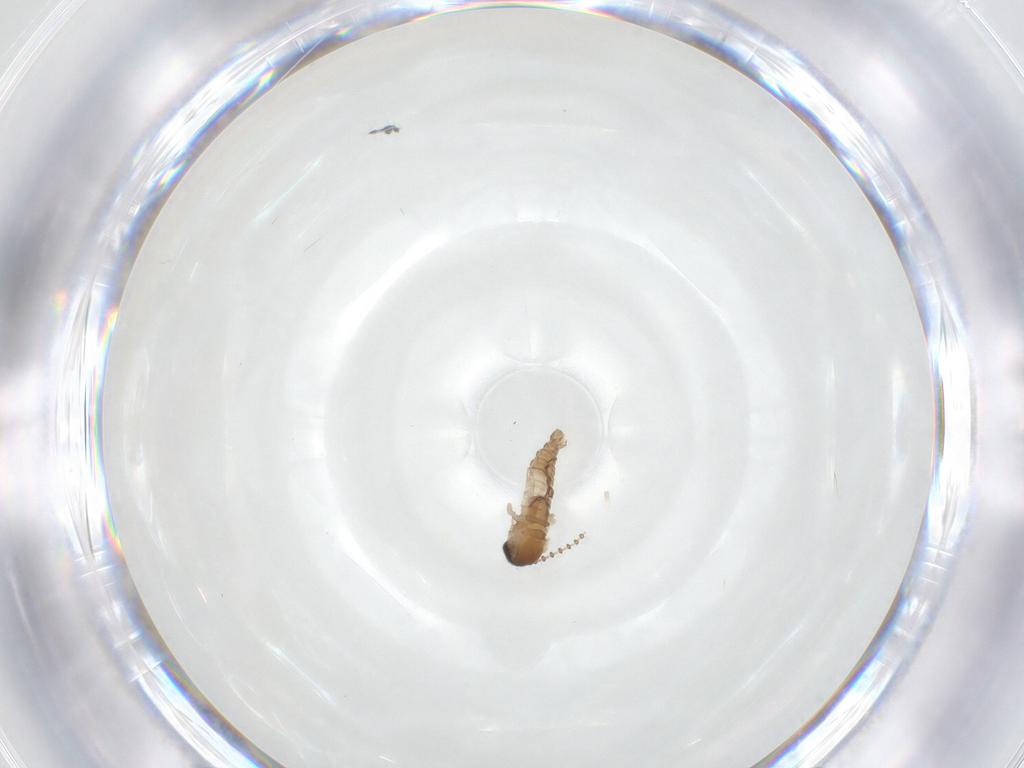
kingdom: Animalia
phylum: Arthropoda
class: Insecta
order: Diptera
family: Psychodidae
